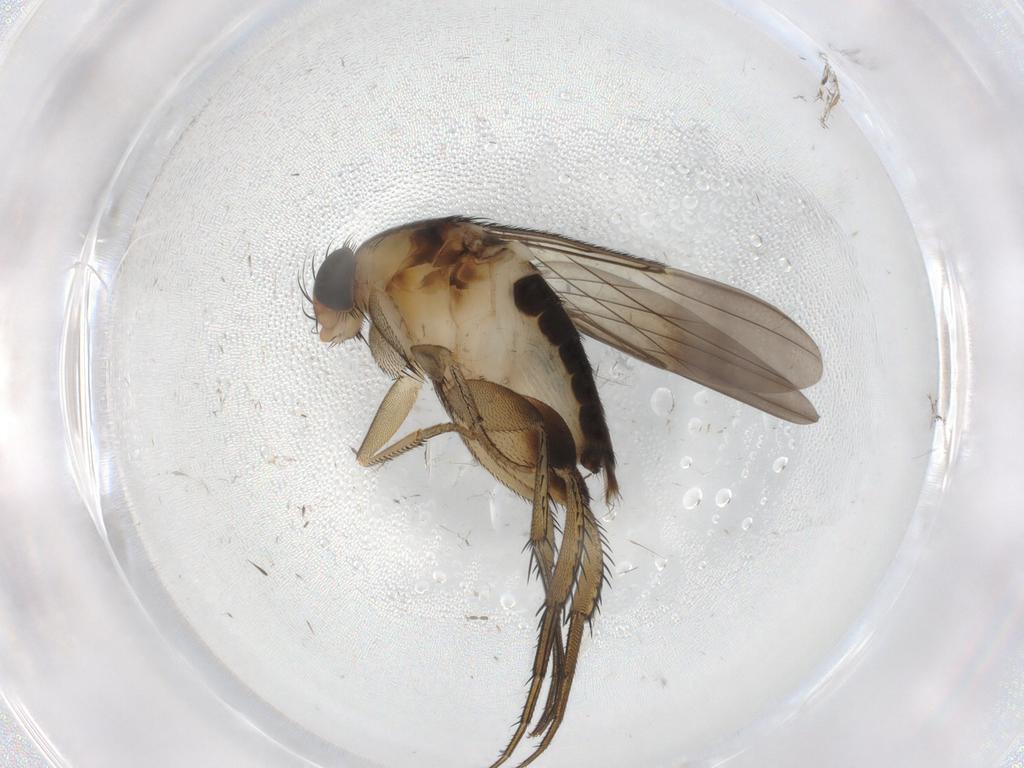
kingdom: Animalia
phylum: Arthropoda
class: Insecta
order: Diptera
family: Phoridae
